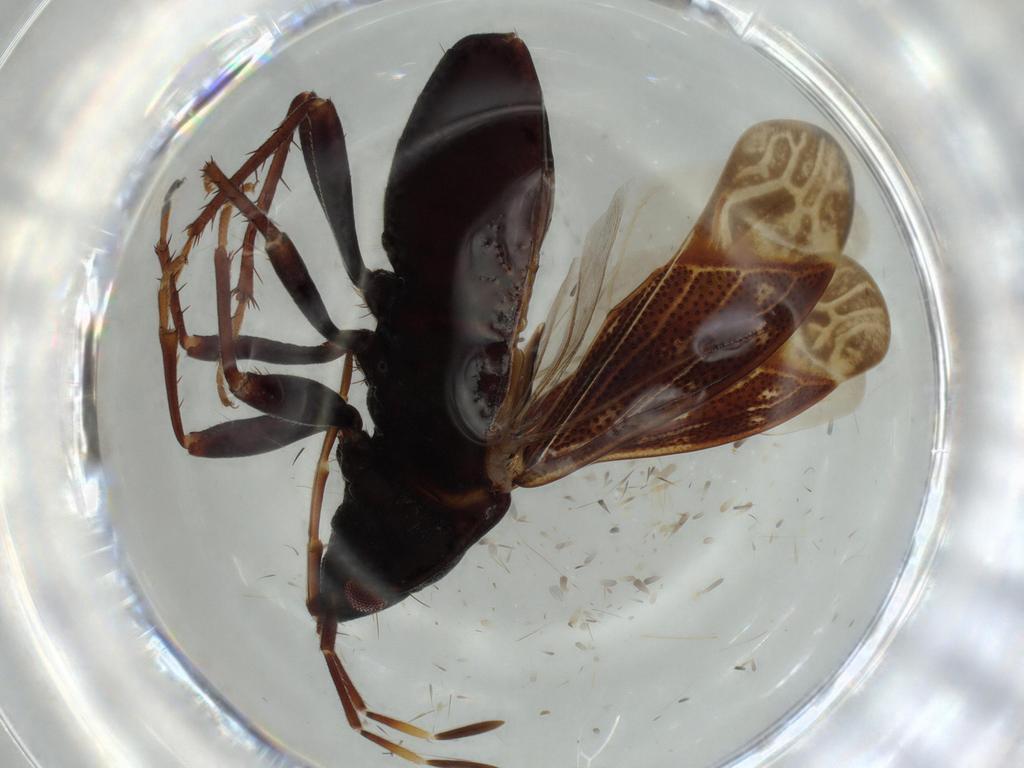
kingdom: Animalia
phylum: Arthropoda
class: Insecta
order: Hemiptera
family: Rhyparochromidae
